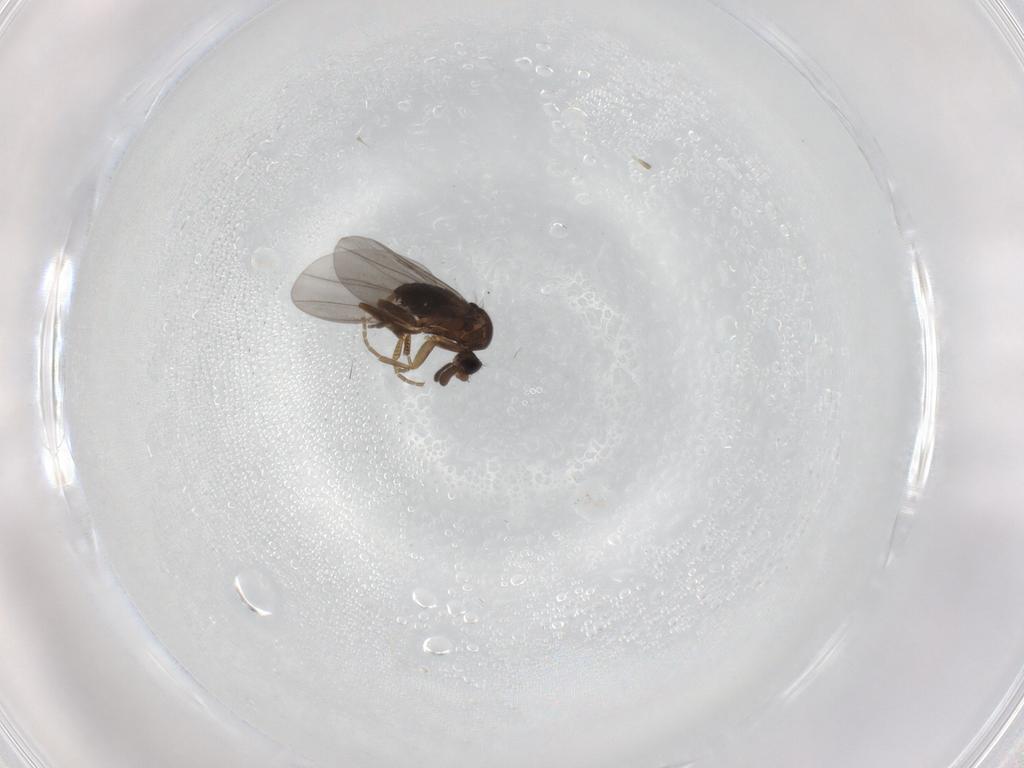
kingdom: Animalia
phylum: Arthropoda
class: Insecta
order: Diptera
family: Phoridae
